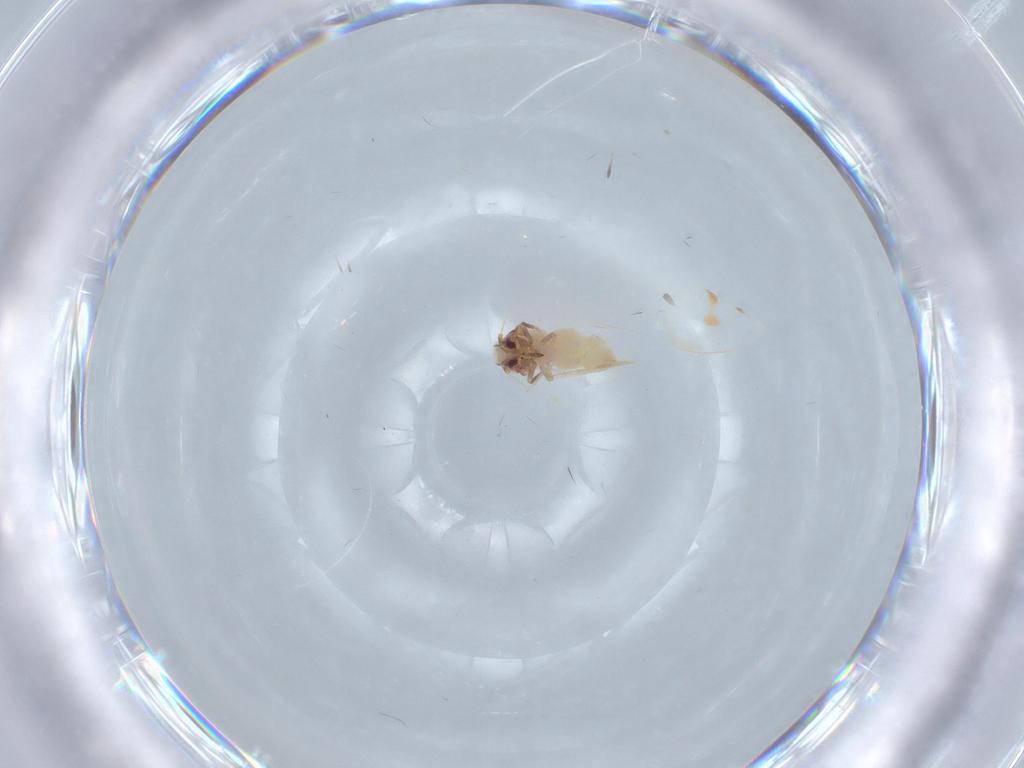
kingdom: Animalia
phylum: Arthropoda
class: Insecta
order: Hemiptera
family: Aleyrodidae
